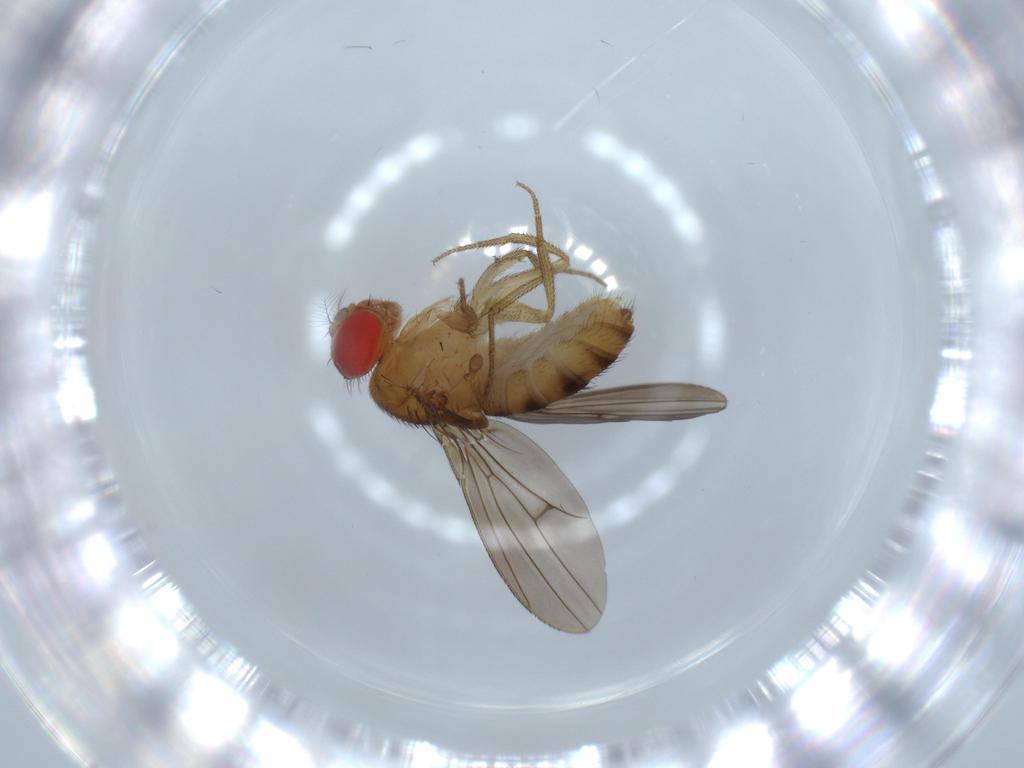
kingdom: Animalia
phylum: Arthropoda
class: Insecta
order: Diptera
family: Drosophilidae
